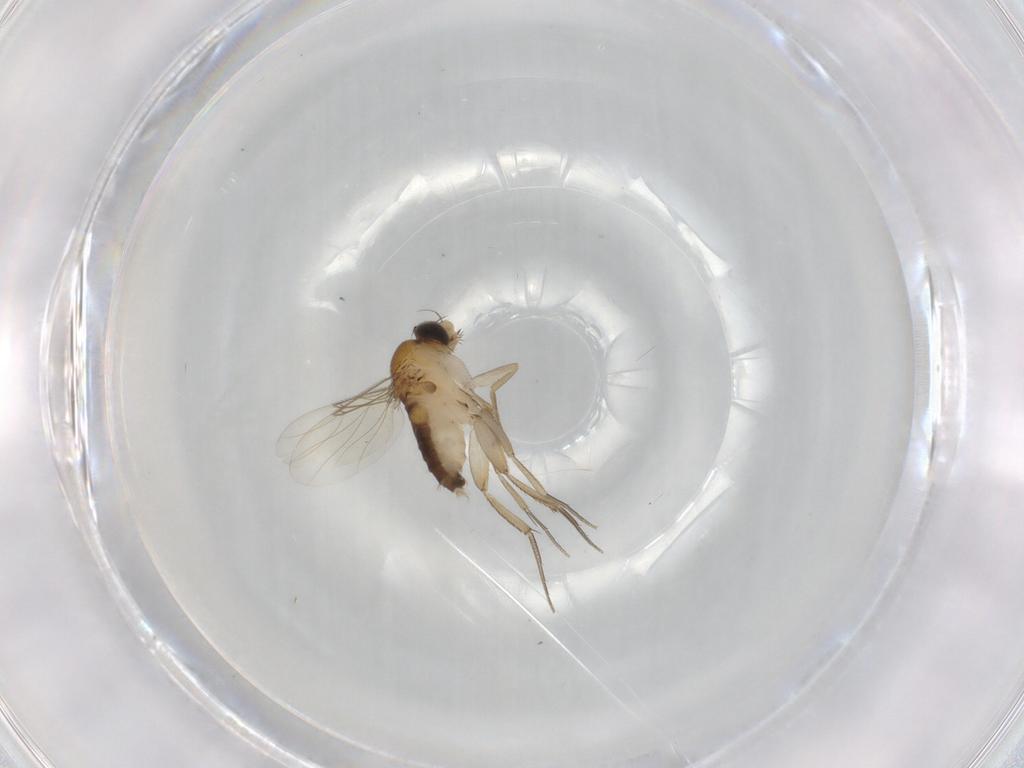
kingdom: Animalia
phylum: Arthropoda
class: Insecta
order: Diptera
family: Phoridae
